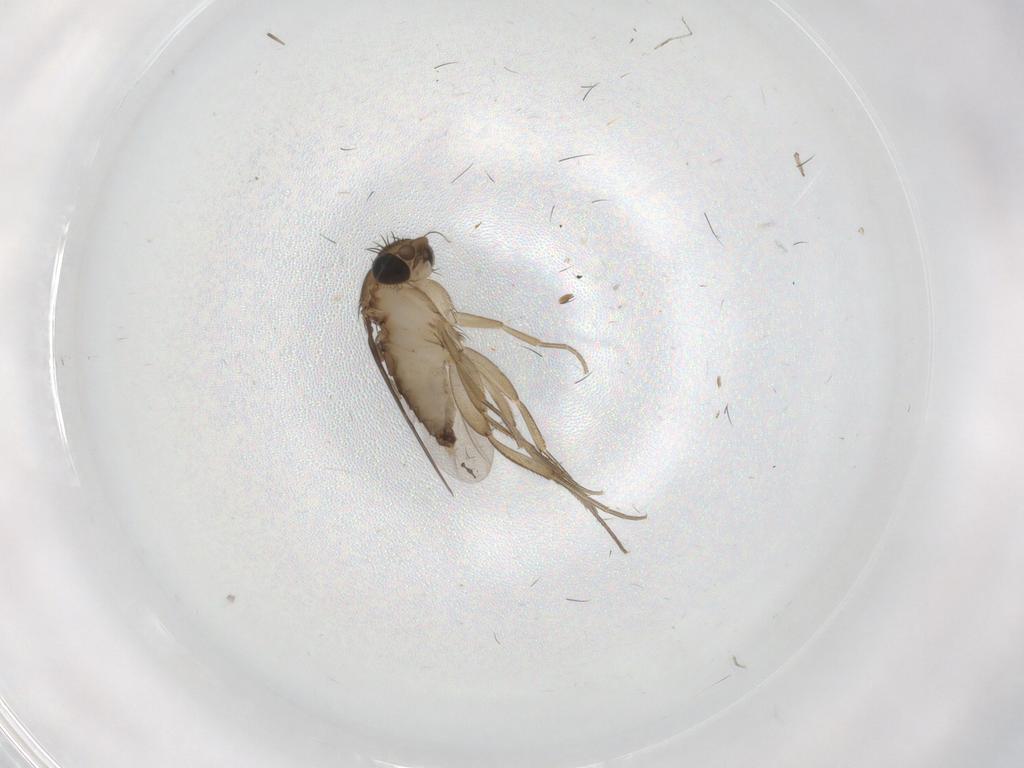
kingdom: Animalia
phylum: Arthropoda
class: Insecta
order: Diptera
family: Phoridae
